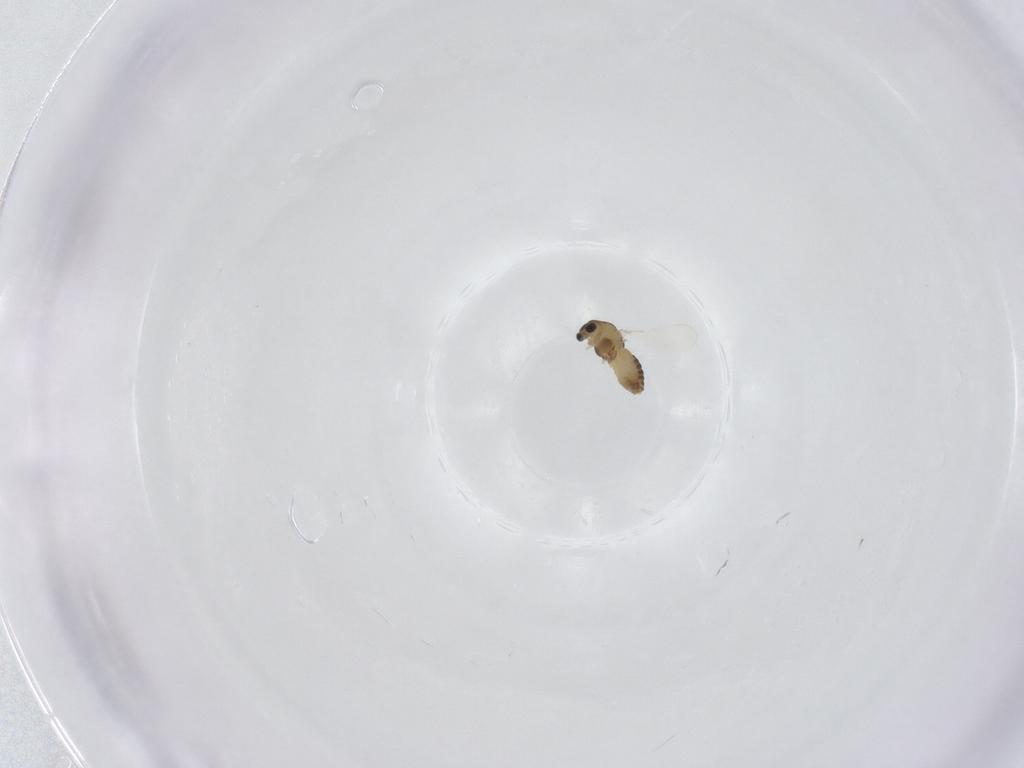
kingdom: Animalia
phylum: Arthropoda
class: Insecta
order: Diptera
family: Chironomidae
